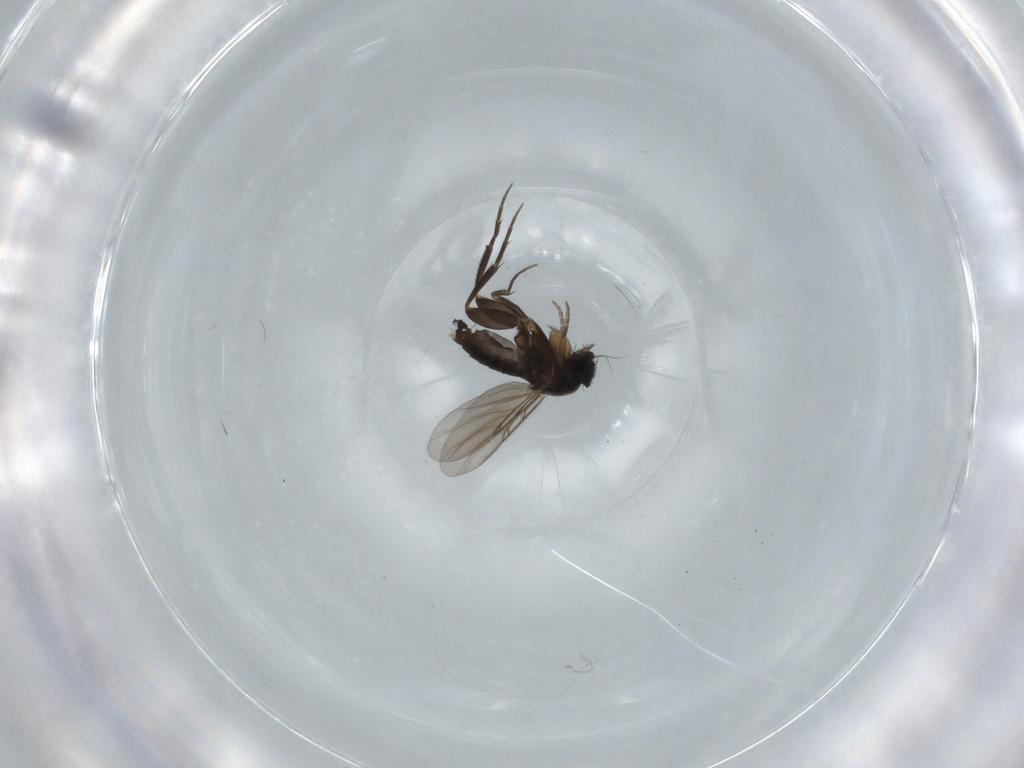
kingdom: Animalia
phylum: Arthropoda
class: Insecta
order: Diptera
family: Phoridae
